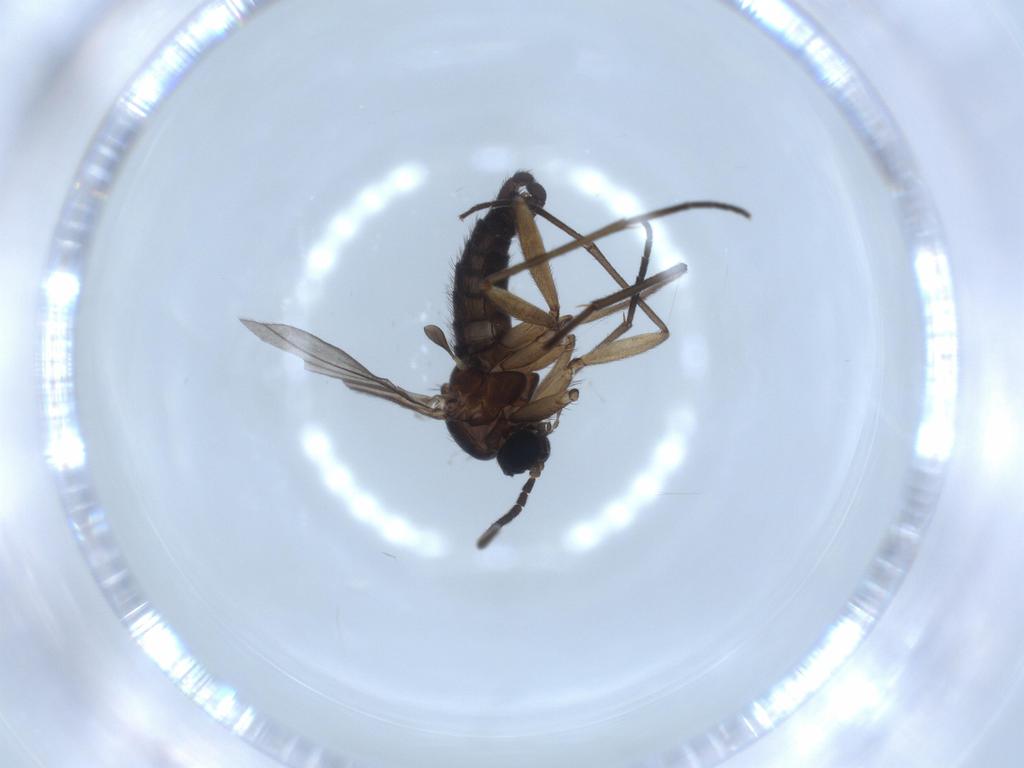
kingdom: Animalia
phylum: Arthropoda
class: Insecta
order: Diptera
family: Sciaridae
